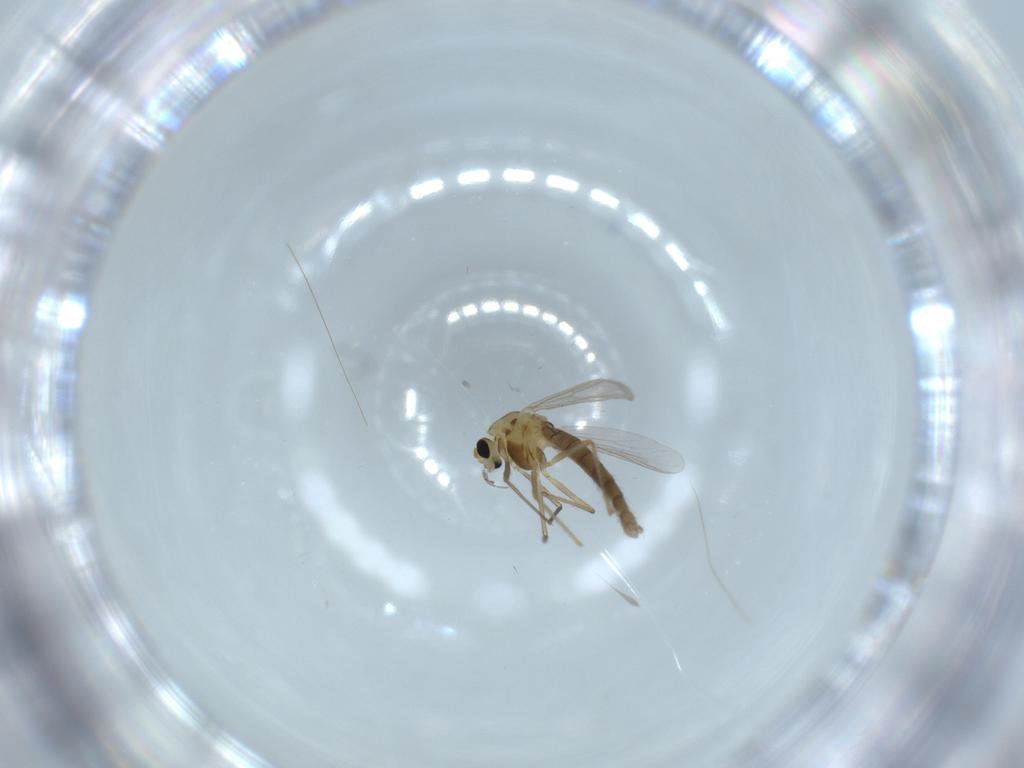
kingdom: Animalia
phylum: Arthropoda
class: Insecta
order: Diptera
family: Chironomidae
